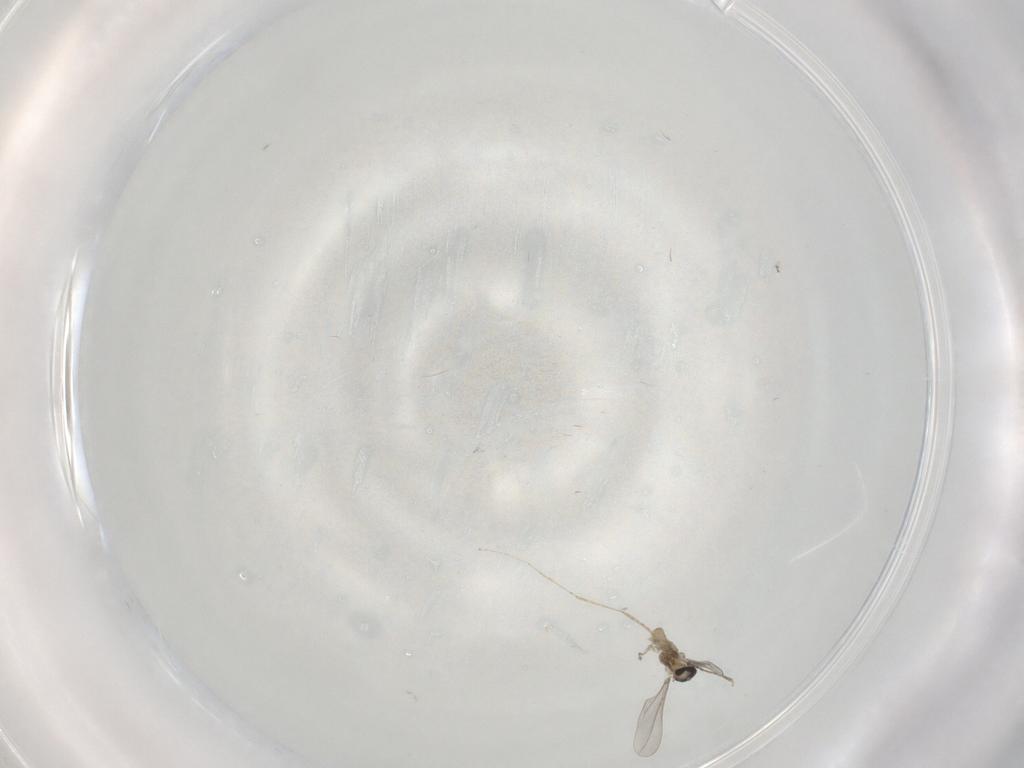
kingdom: Animalia
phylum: Arthropoda
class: Insecta
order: Diptera
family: Cecidomyiidae
